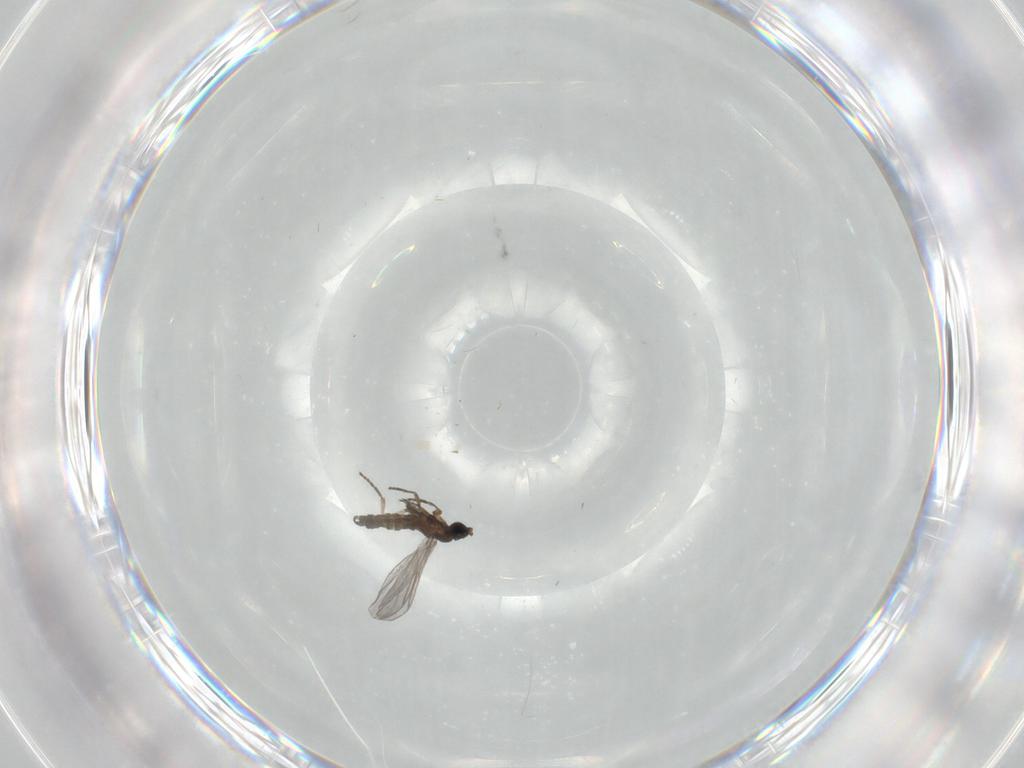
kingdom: Animalia
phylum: Arthropoda
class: Insecta
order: Diptera
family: Sciaridae
